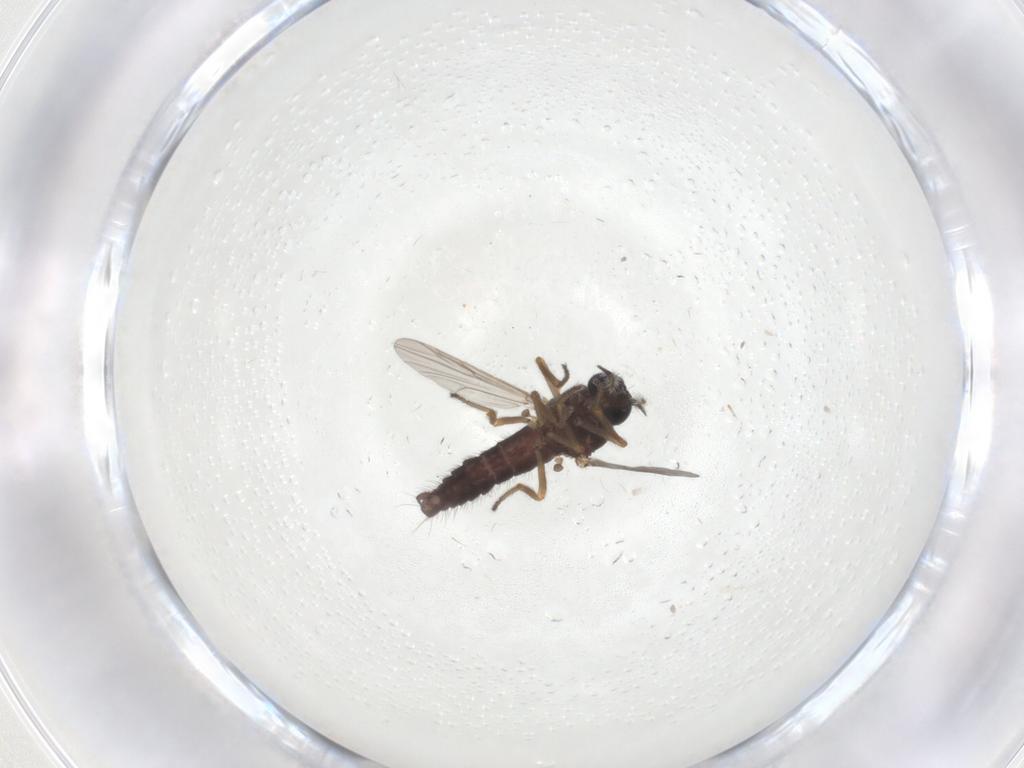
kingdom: Animalia
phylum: Arthropoda
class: Insecta
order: Diptera
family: Ceratopogonidae
